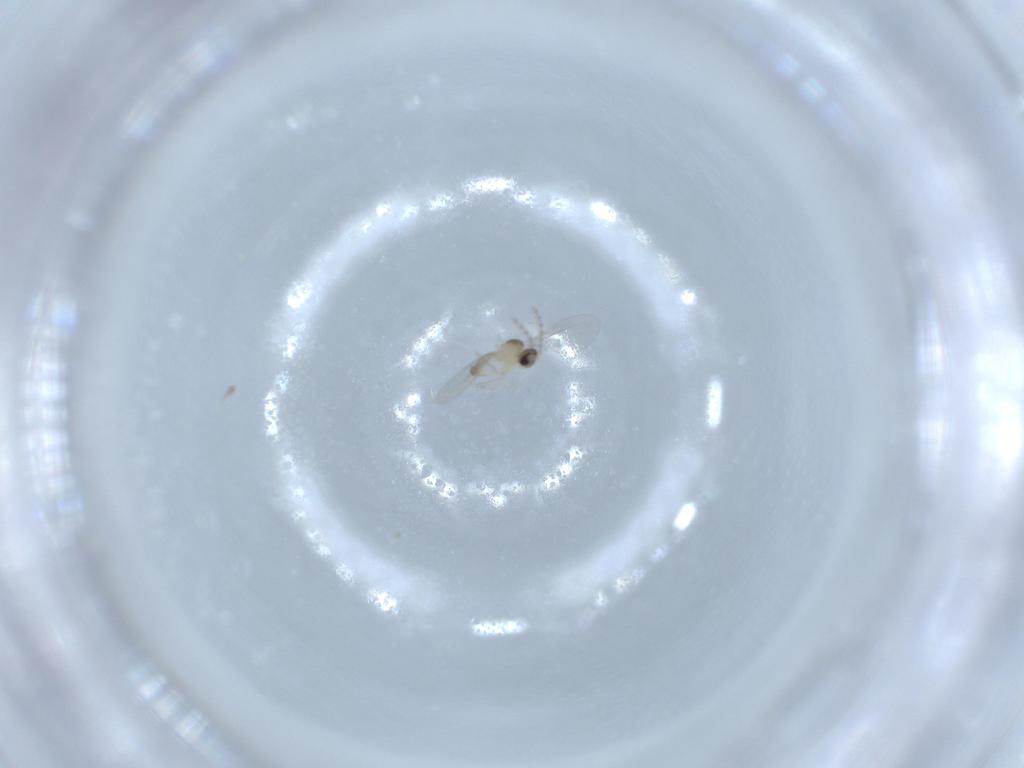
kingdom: Animalia
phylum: Arthropoda
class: Insecta
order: Diptera
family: Cecidomyiidae
